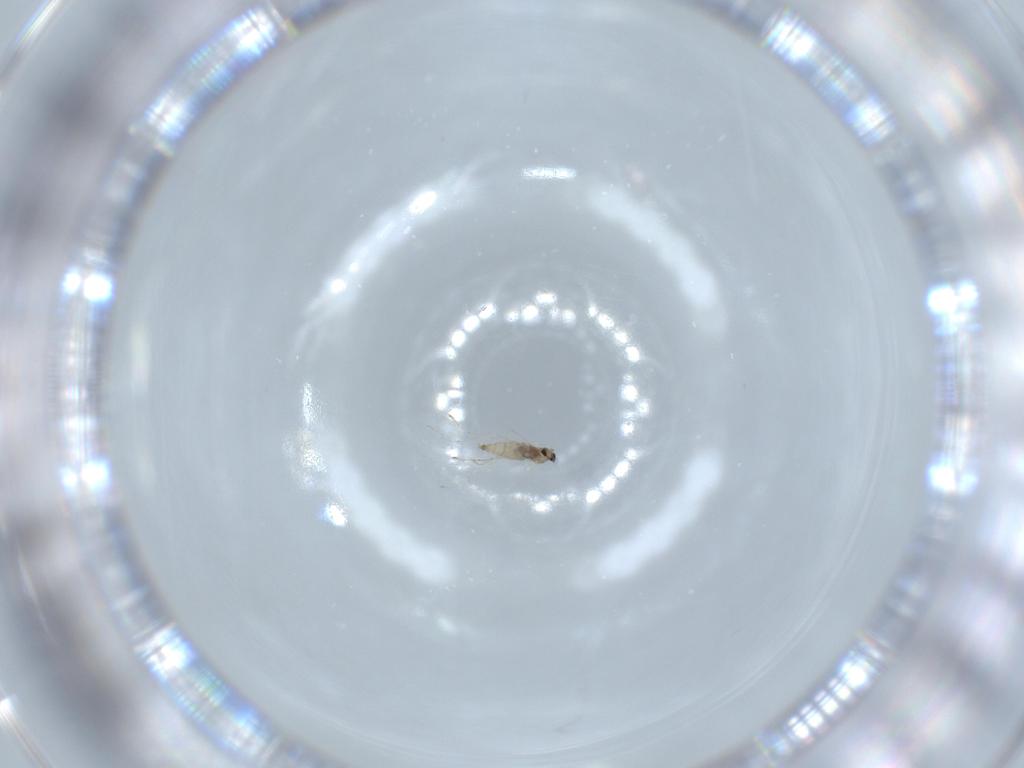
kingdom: Animalia
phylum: Arthropoda
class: Insecta
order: Diptera
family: Cecidomyiidae
